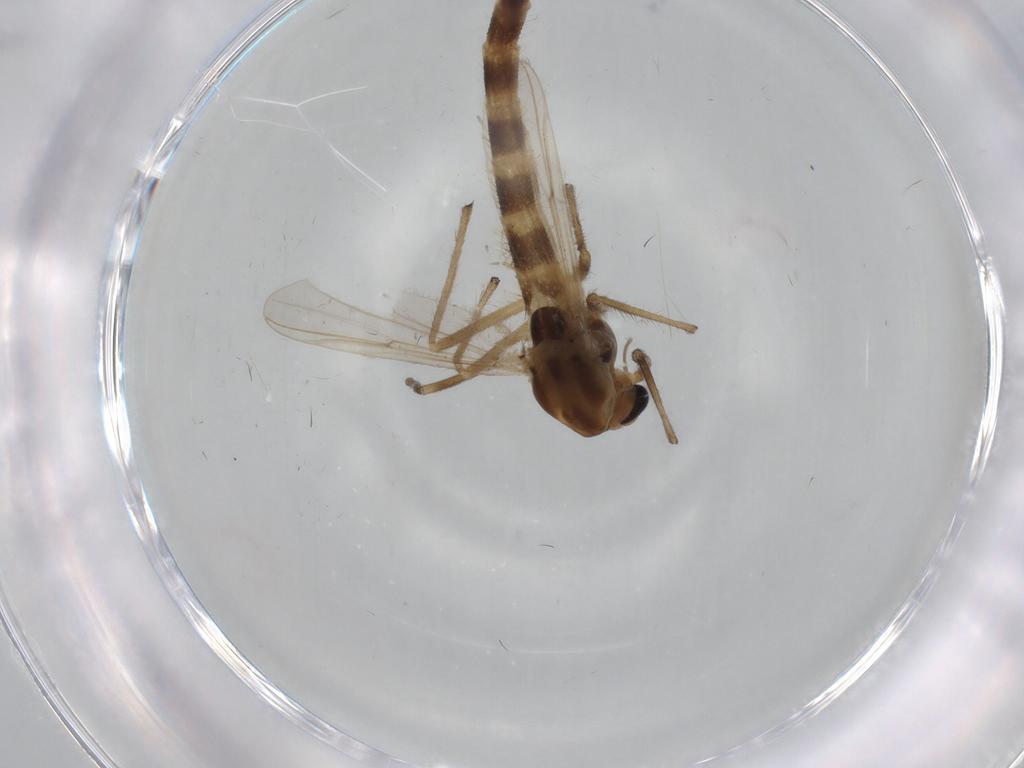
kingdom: Animalia
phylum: Arthropoda
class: Insecta
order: Diptera
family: Chironomidae
